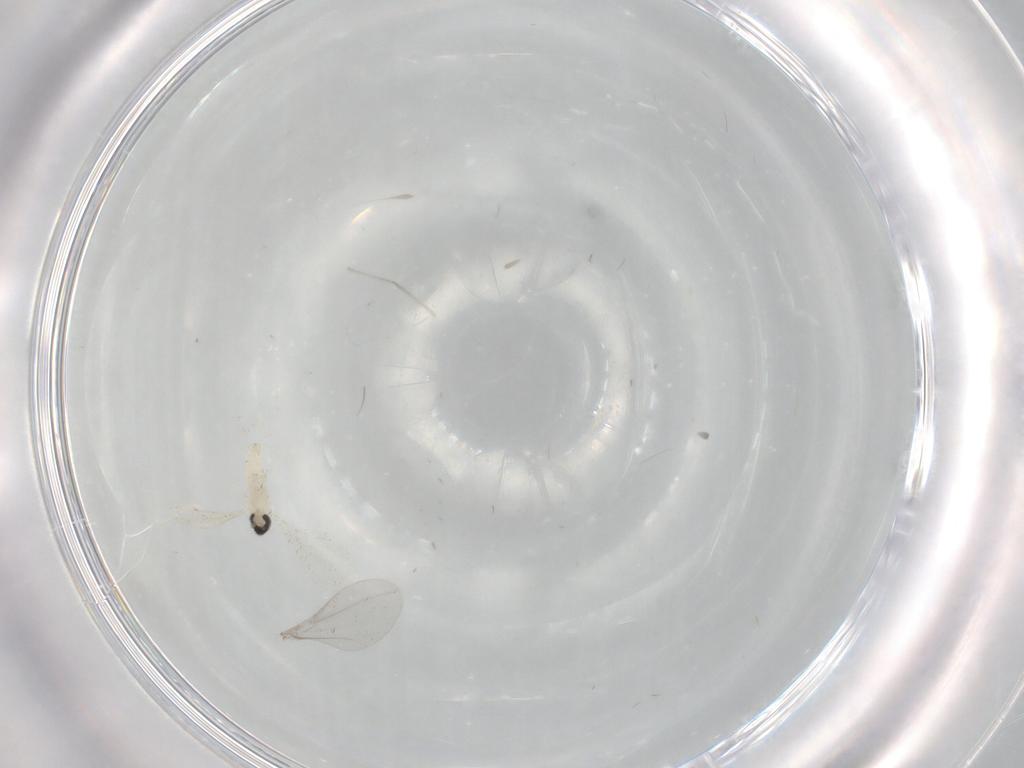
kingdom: Animalia
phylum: Arthropoda
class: Insecta
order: Diptera
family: Cecidomyiidae
